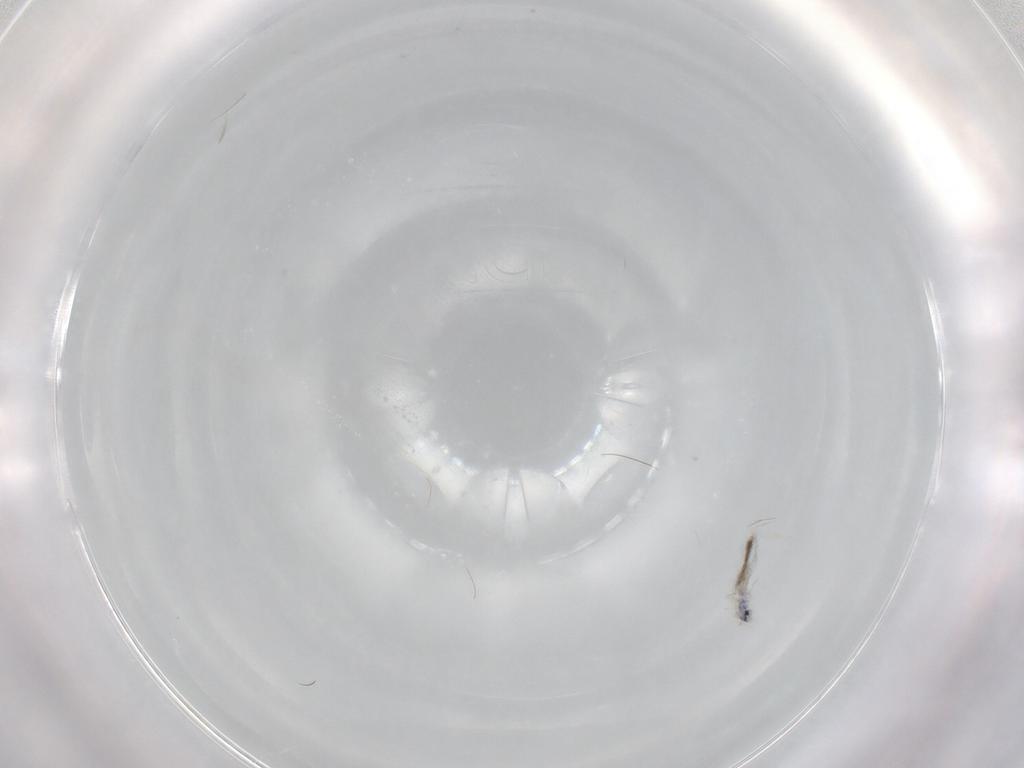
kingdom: Animalia
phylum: Arthropoda
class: Collembola
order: Entomobryomorpha
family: Entomobryidae
